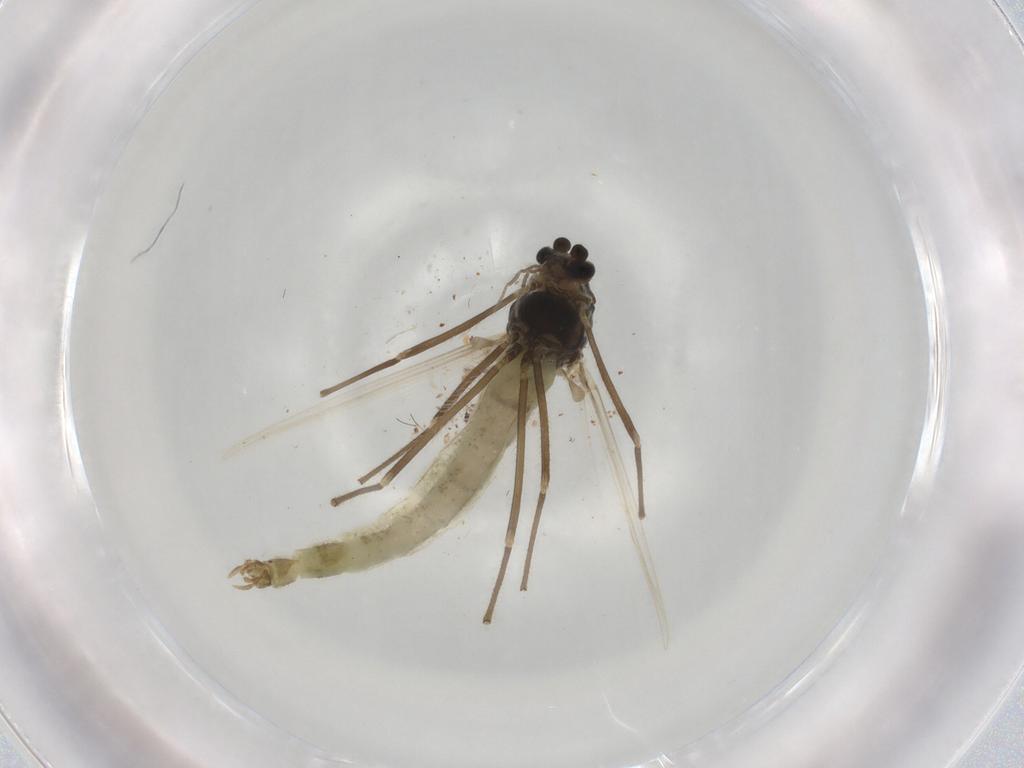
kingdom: Animalia
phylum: Arthropoda
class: Insecta
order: Diptera
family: Chironomidae
